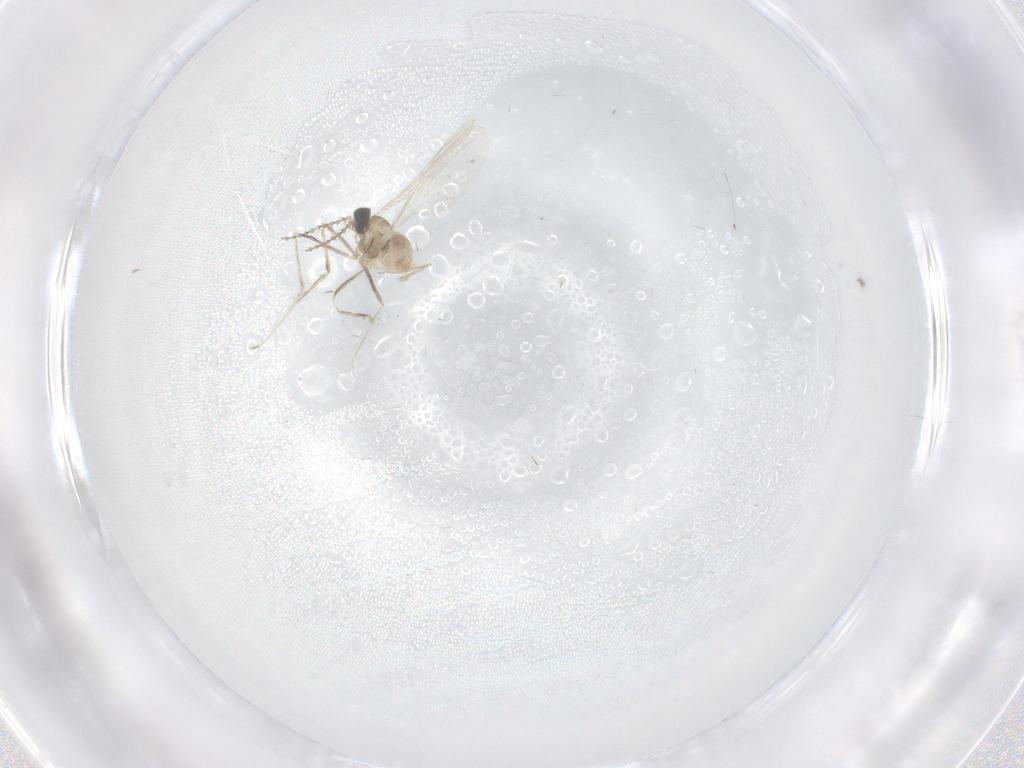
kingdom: Animalia
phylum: Arthropoda
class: Insecta
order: Diptera
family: Cecidomyiidae
